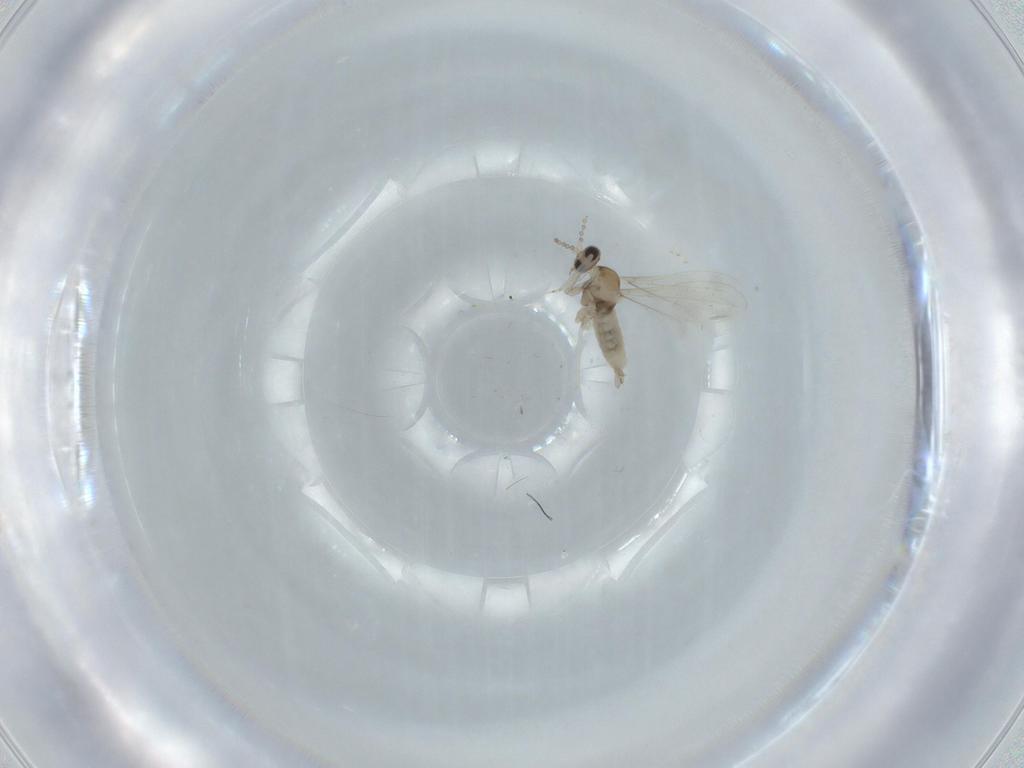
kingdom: Animalia
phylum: Arthropoda
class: Insecta
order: Diptera
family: Cecidomyiidae
